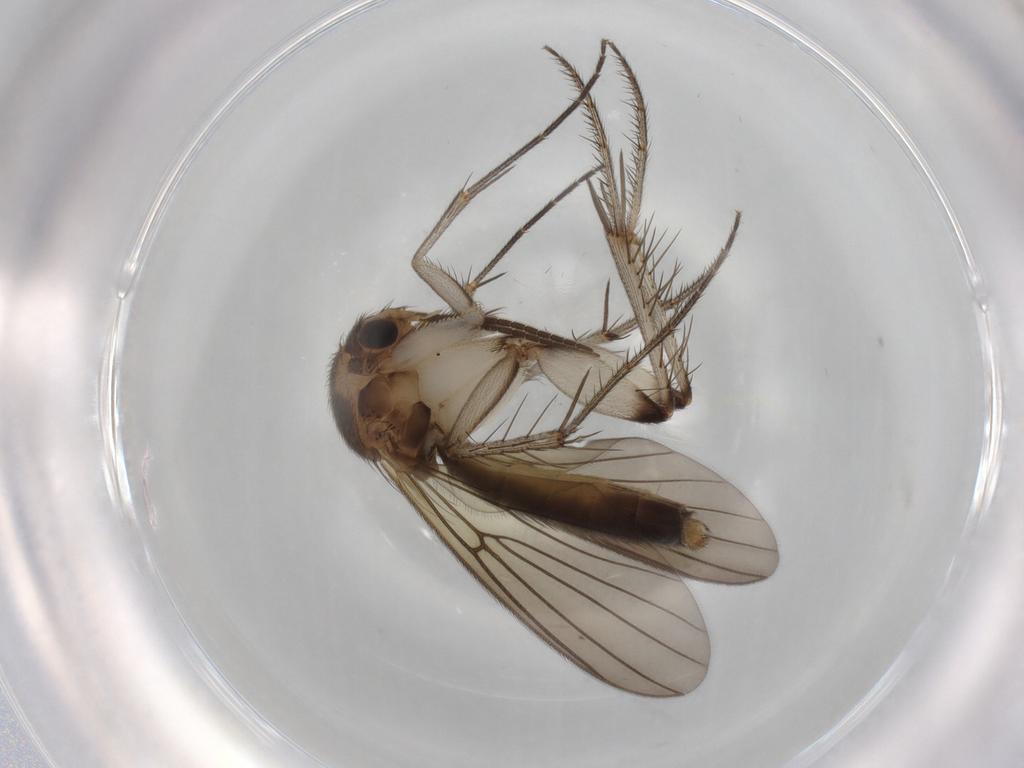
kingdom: Animalia
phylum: Arthropoda
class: Insecta
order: Diptera
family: Mycetophilidae
